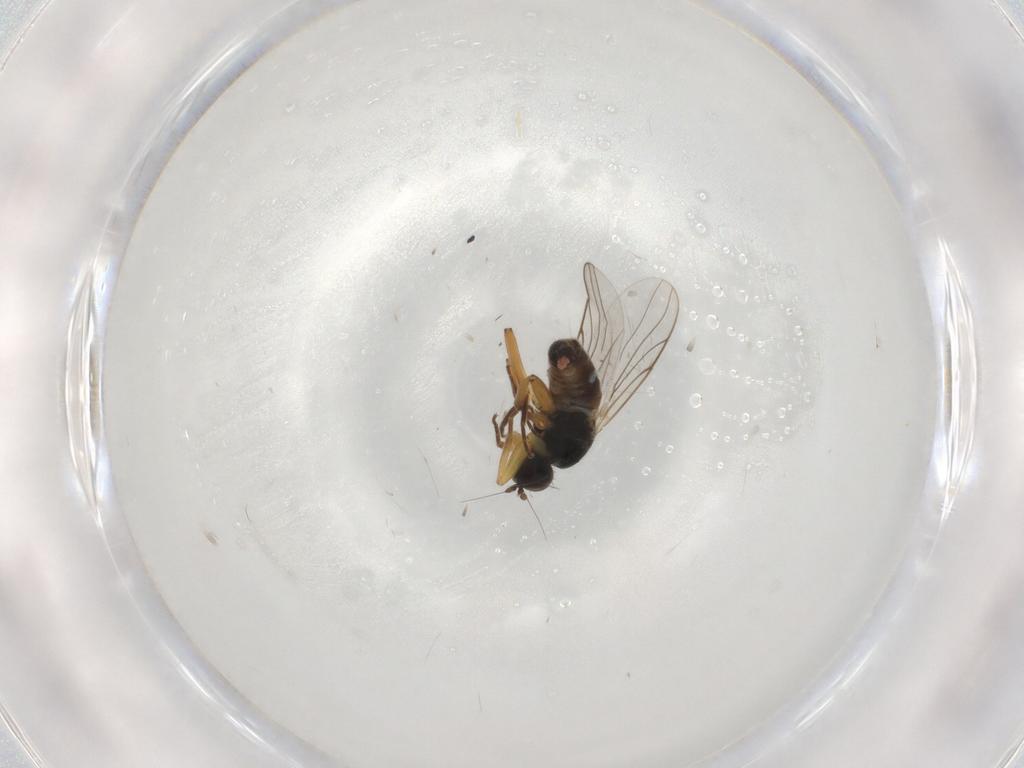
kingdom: Animalia
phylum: Arthropoda
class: Insecta
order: Diptera
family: Hybotidae
